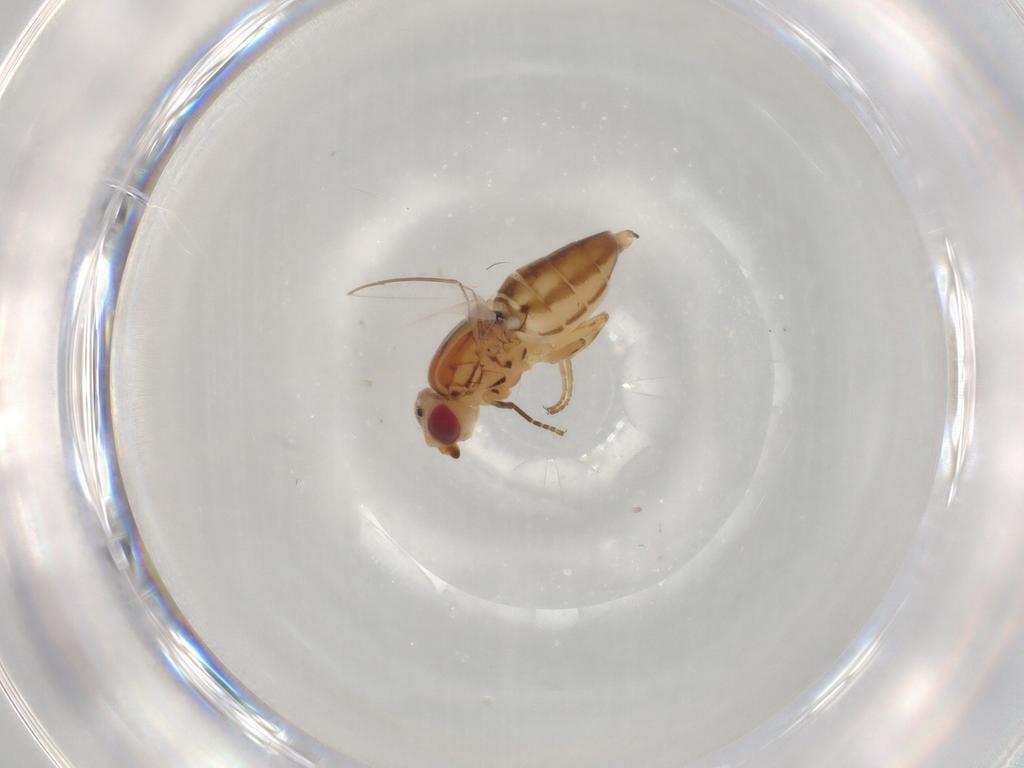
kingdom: Animalia
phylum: Arthropoda
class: Insecta
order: Diptera
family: Chloropidae
